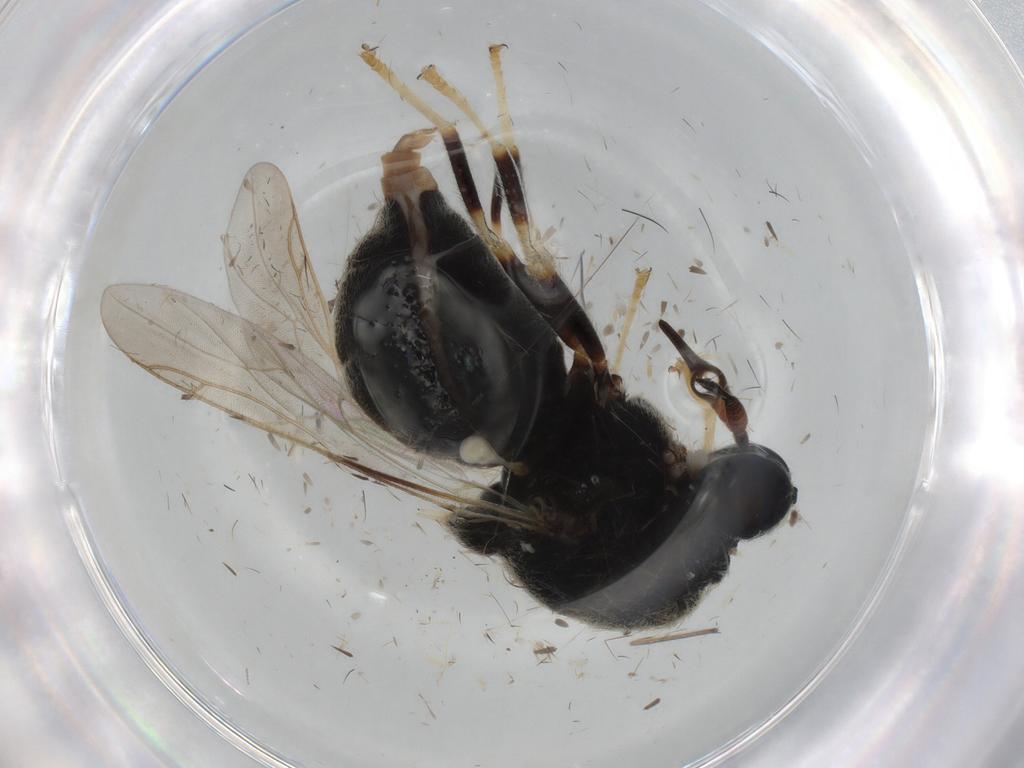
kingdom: Animalia
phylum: Arthropoda
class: Insecta
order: Diptera
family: Stratiomyidae
